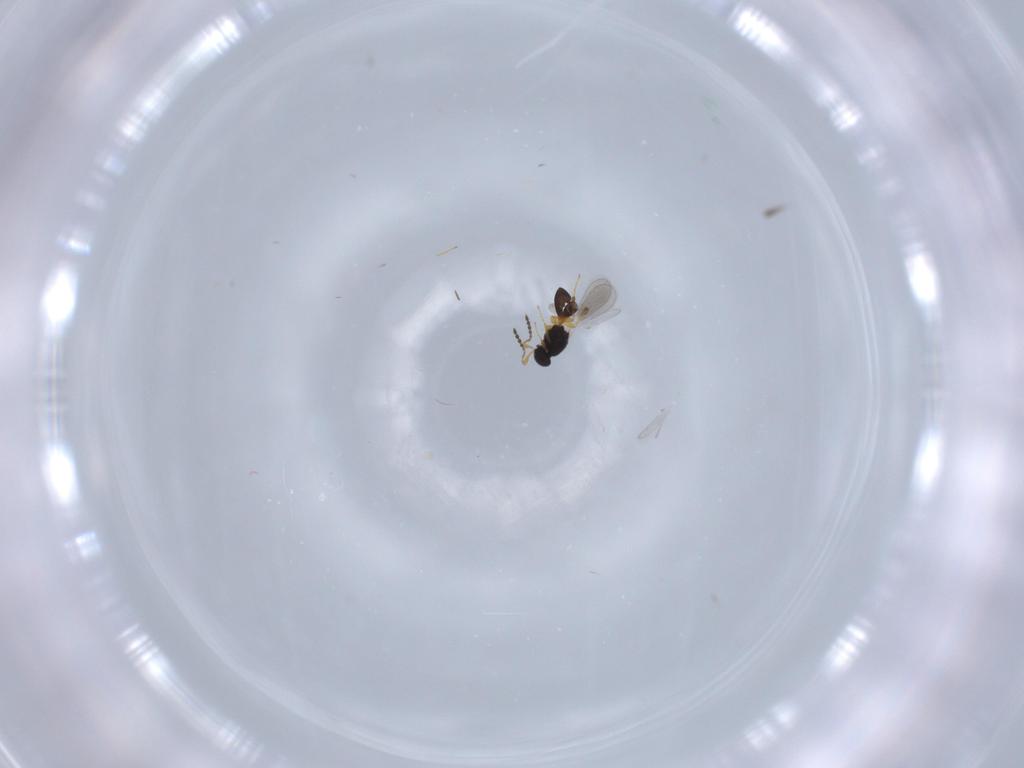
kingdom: Animalia
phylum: Arthropoda
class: Insecta
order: Hymenoptera
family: Platygastridae
